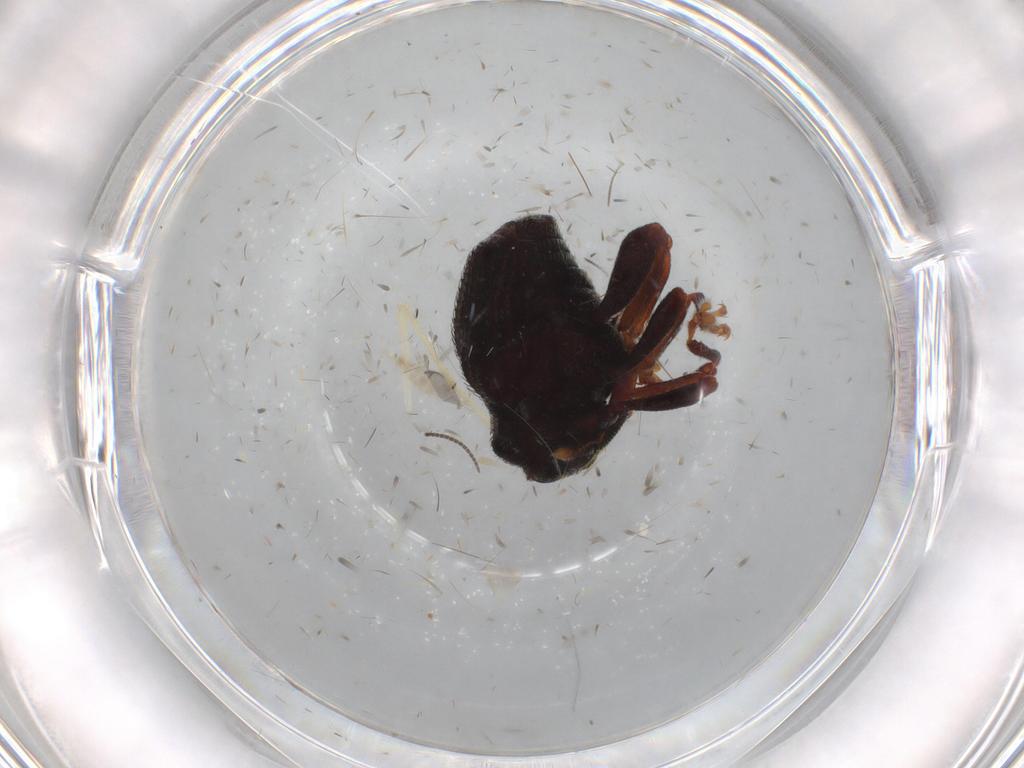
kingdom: Animalia
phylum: Arthropoda
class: Insecta
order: Coleoptera
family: Curculionidae
